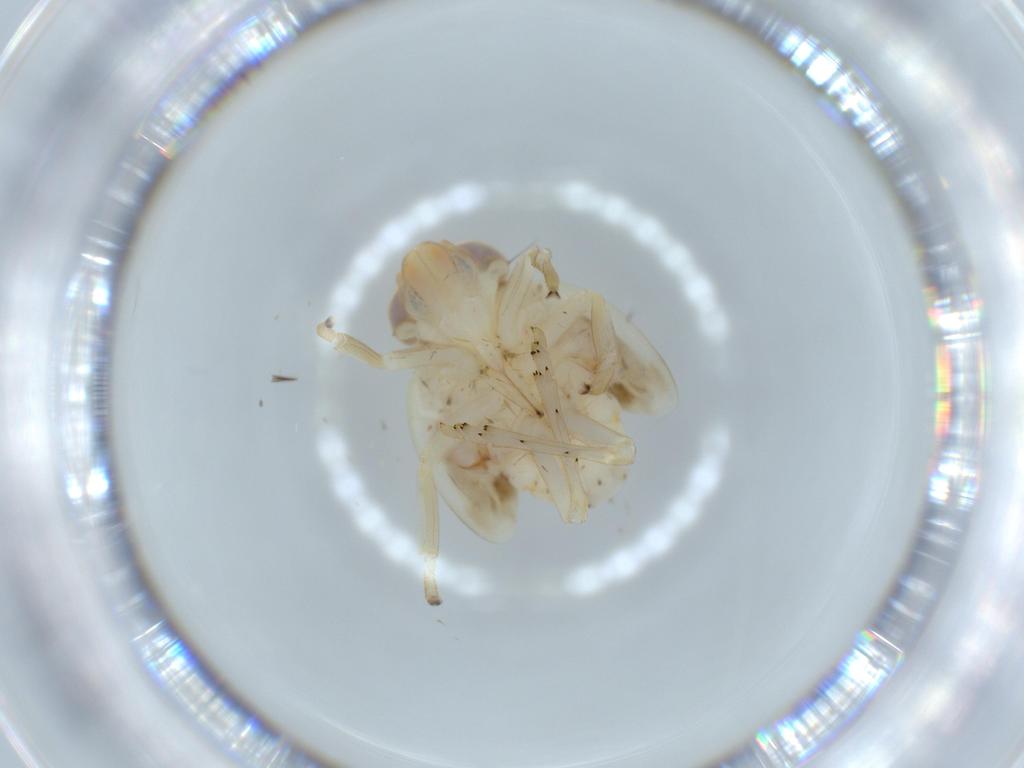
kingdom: Animalia
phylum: Arthropoda
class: Insecta
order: Hemiptera
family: Nogodinidae
